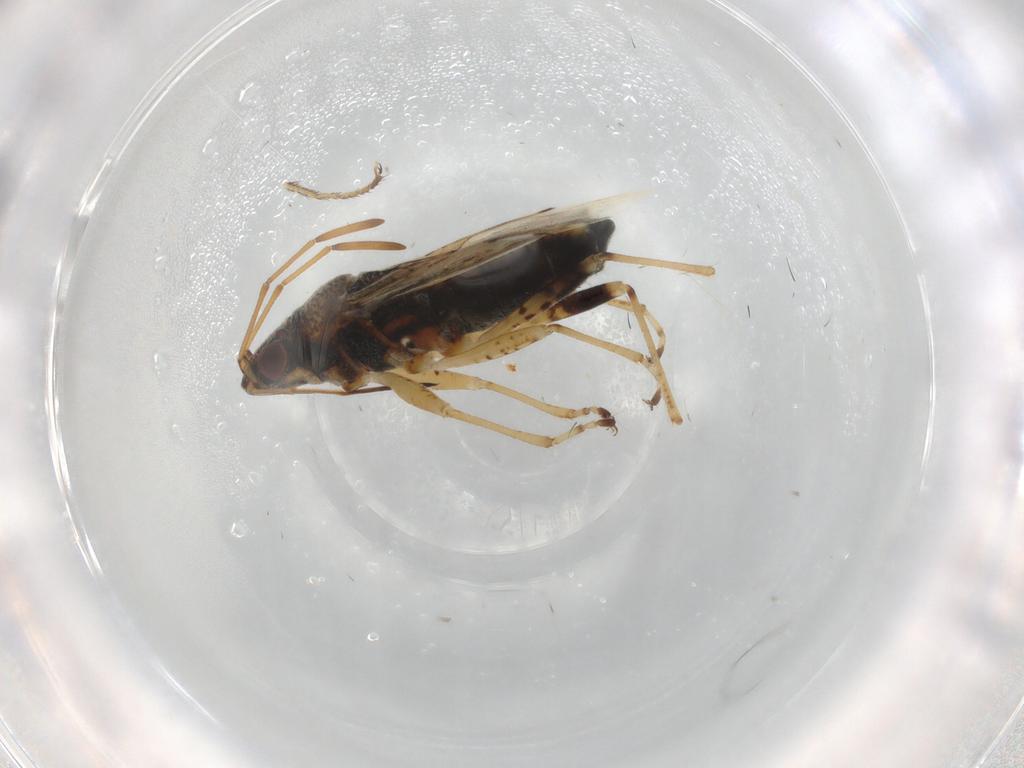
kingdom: Animalia
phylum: Arthropoda
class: Insecta
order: Hemiptera
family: Lygaeidae
